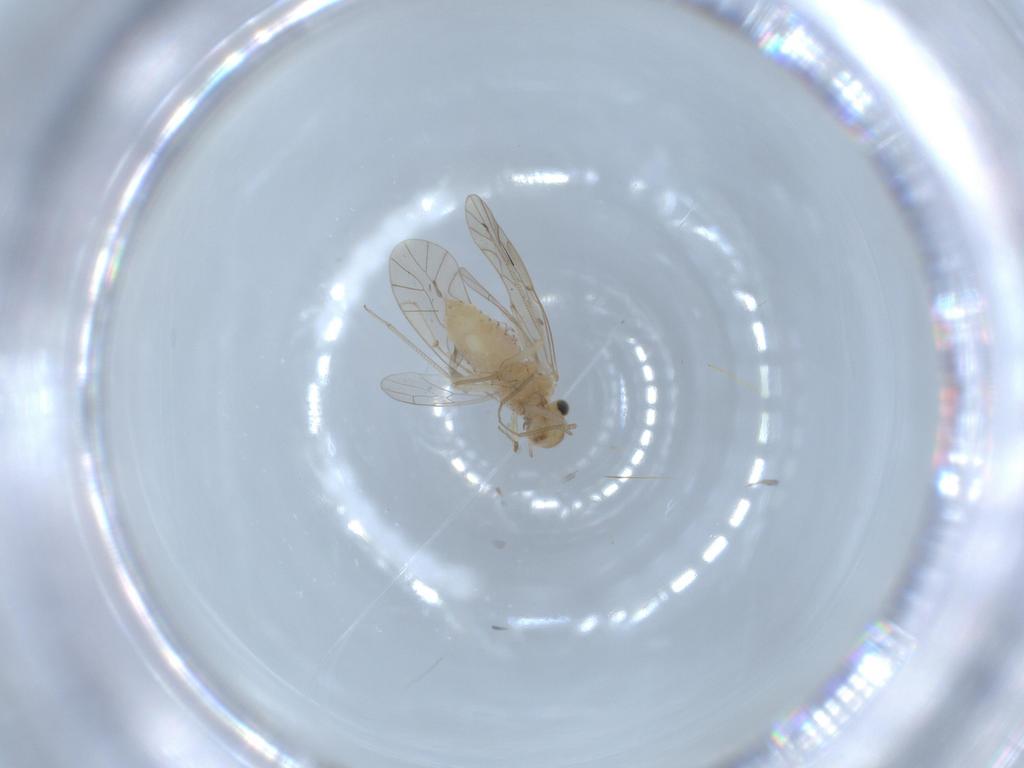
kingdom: Animalia
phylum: Arthropoda
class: Insecta
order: Psocodea
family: Lachesillidae
